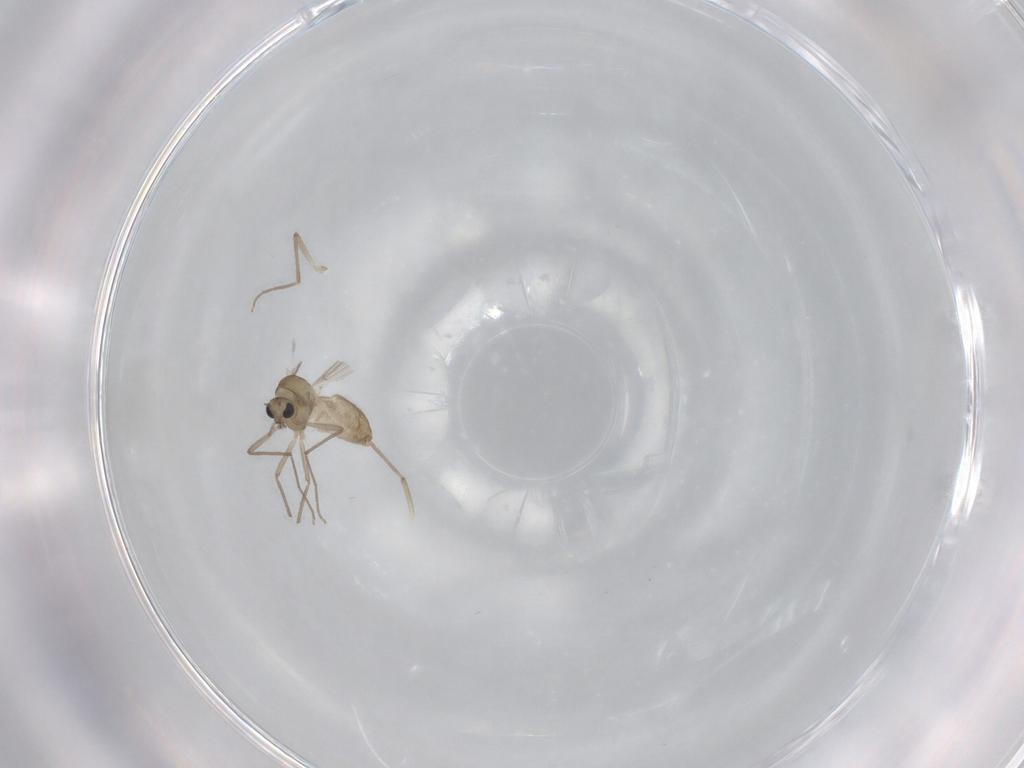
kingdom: Animalia
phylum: Arthropoda
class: Insecta
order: Diptera
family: Chironomidae
